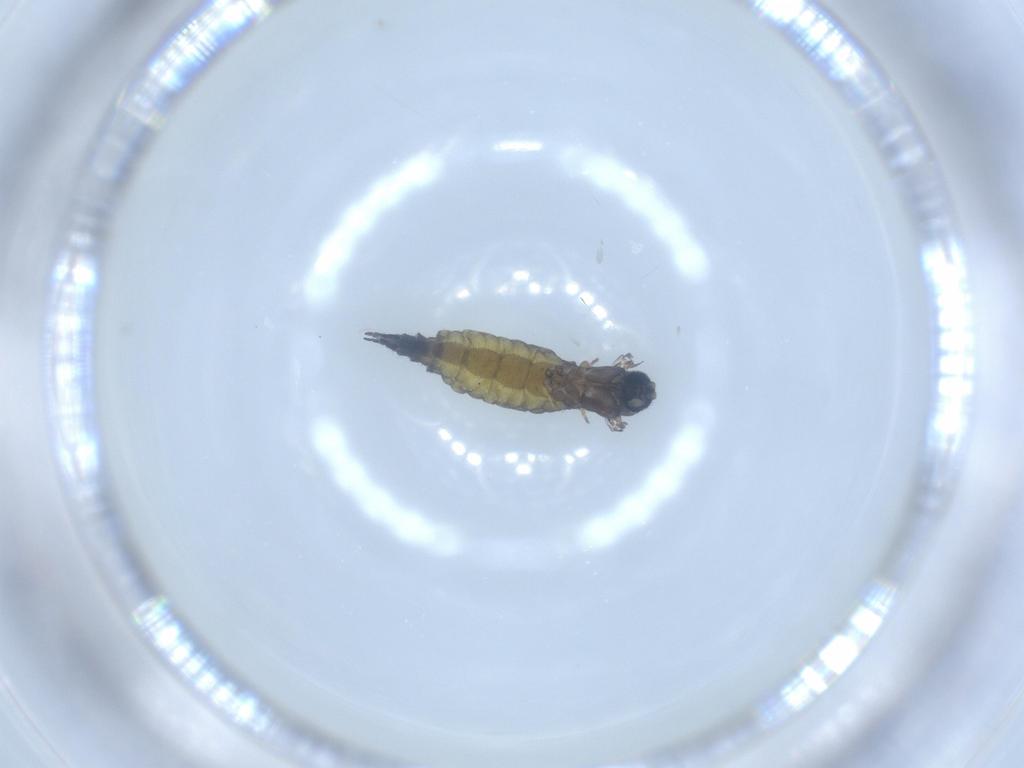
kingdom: Animalia
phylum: Arthropoda
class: Insecta
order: Diptera
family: Sciaridae
